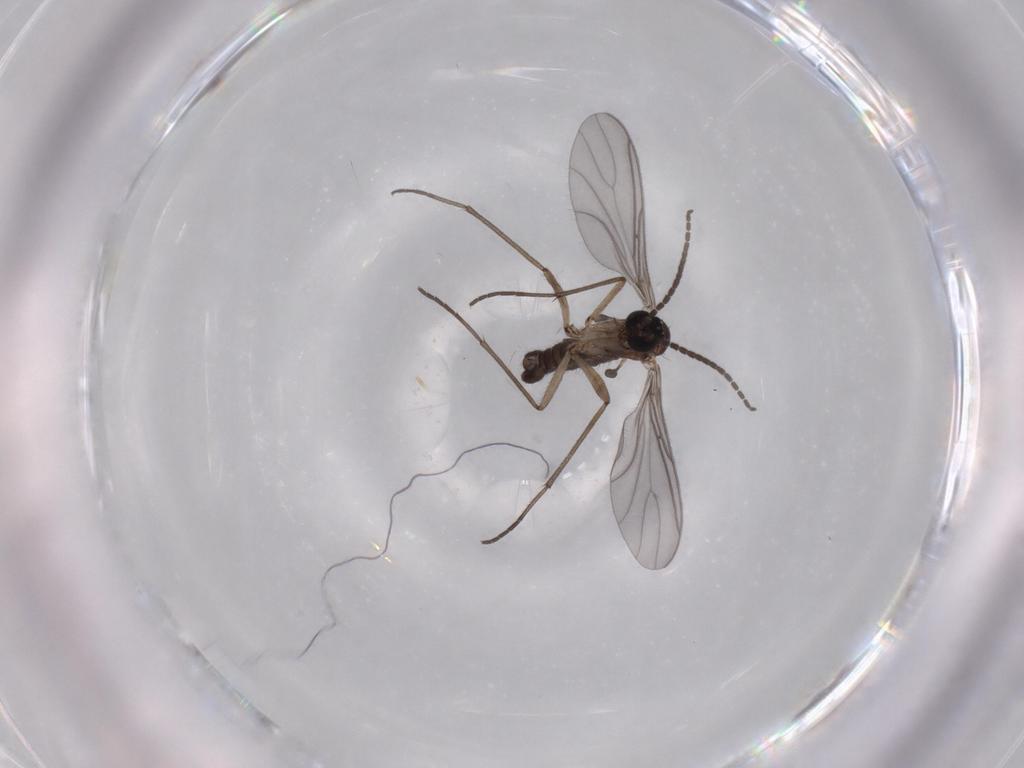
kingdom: Animalia
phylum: Arthropoda
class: Insecta
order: Diptera
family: Sciaridae
